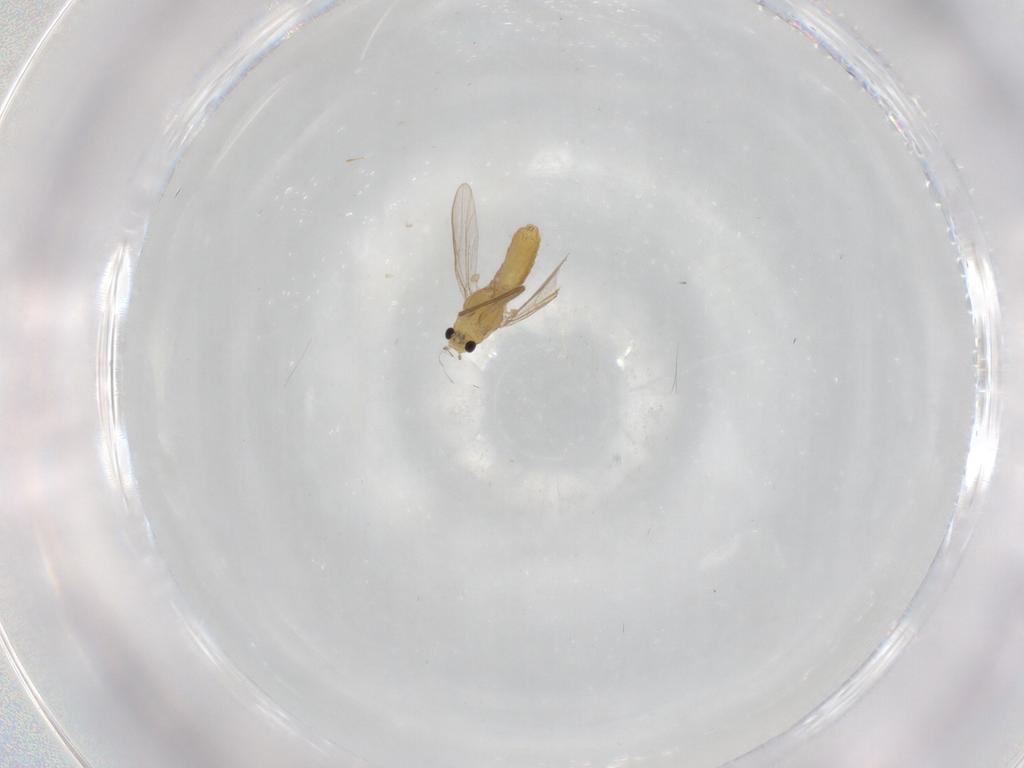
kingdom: Animalia
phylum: Arthropoda
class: Insecta
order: Diptera
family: Chironomidae
